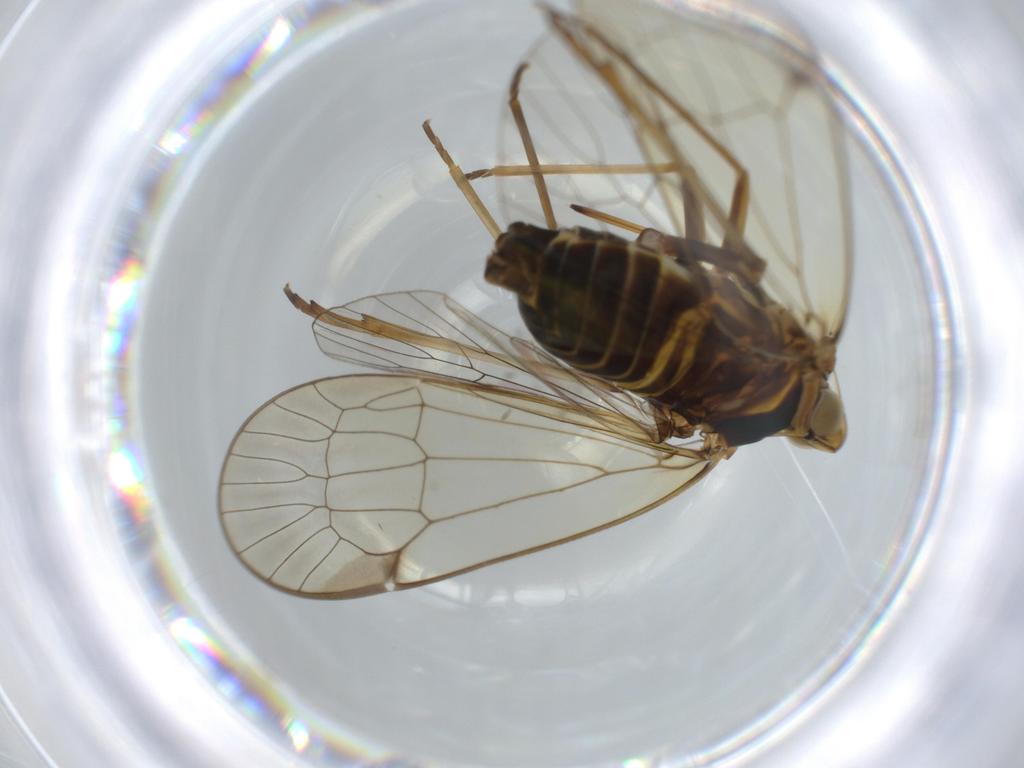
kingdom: Animalia
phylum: Arthropoda
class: Insecta
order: Hemiptera
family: Kinnaridae
